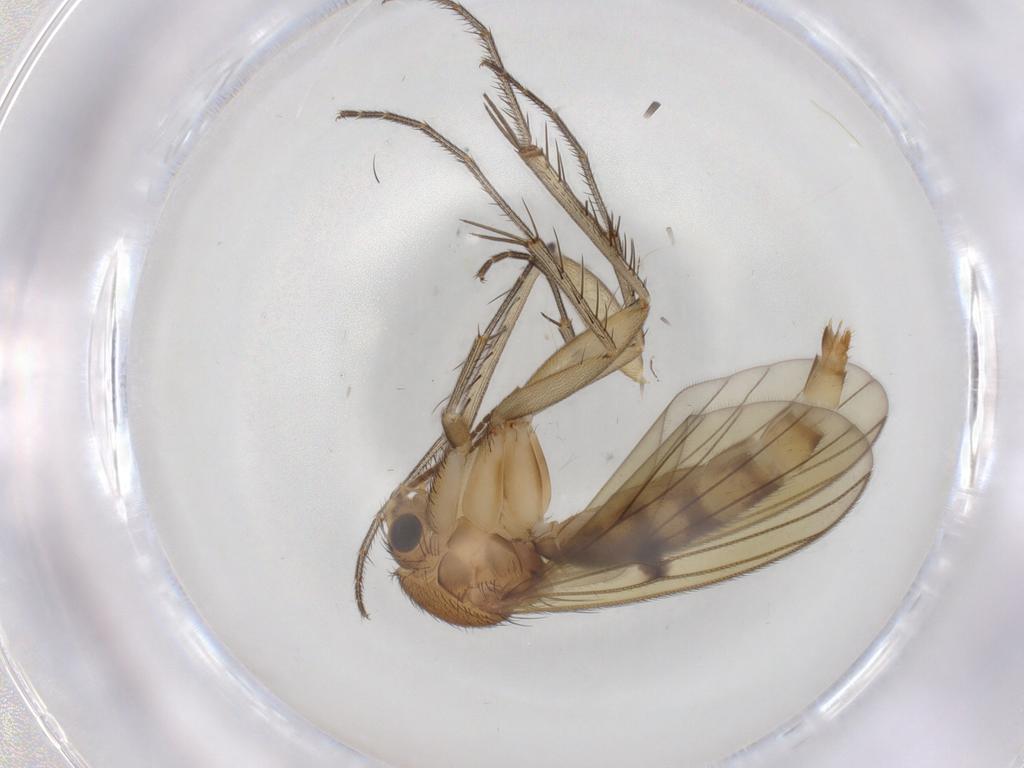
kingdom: Animalia
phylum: Arthropoda
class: Insecta
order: Diptera
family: Mycetophilidae
